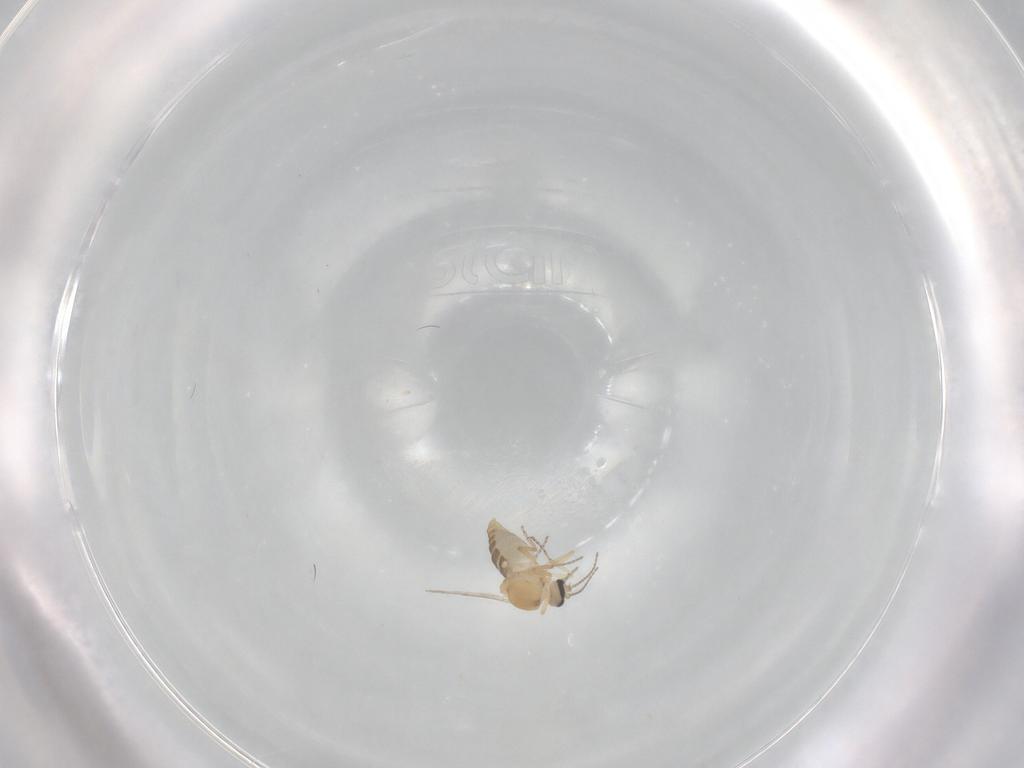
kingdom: Animalia
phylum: Arthropoda
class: Insecta
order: Diptera
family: Ceratopogonidae
